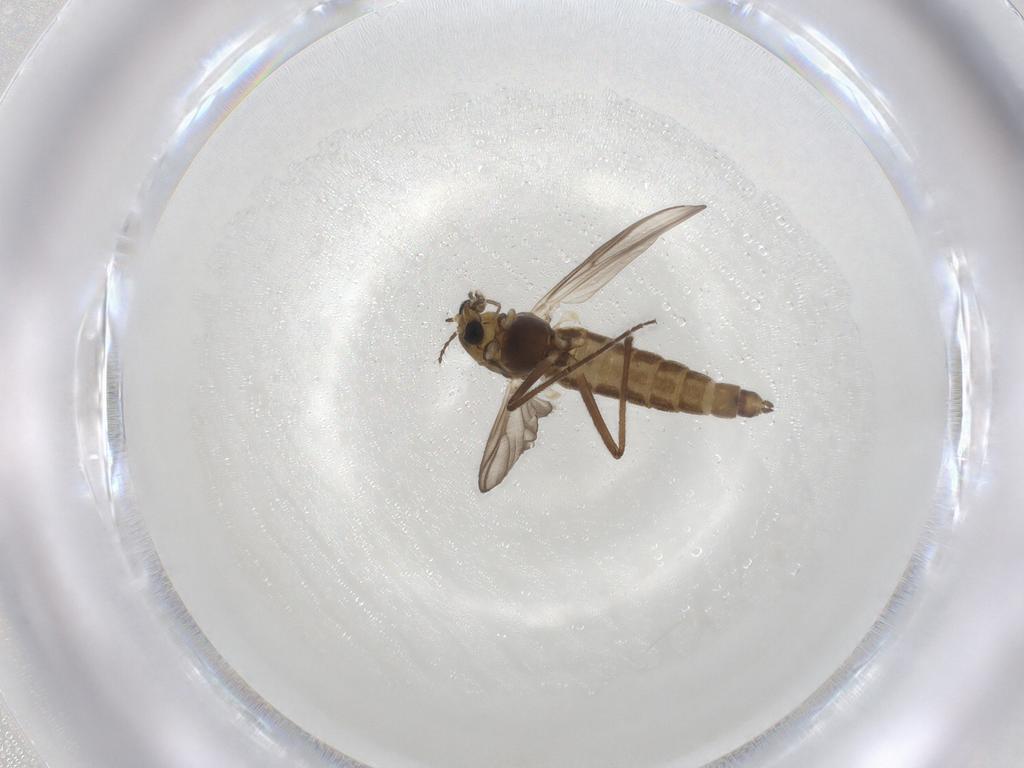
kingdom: Animalia
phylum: Arthropoda
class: Insecta
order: Diptera
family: Chironomidae
